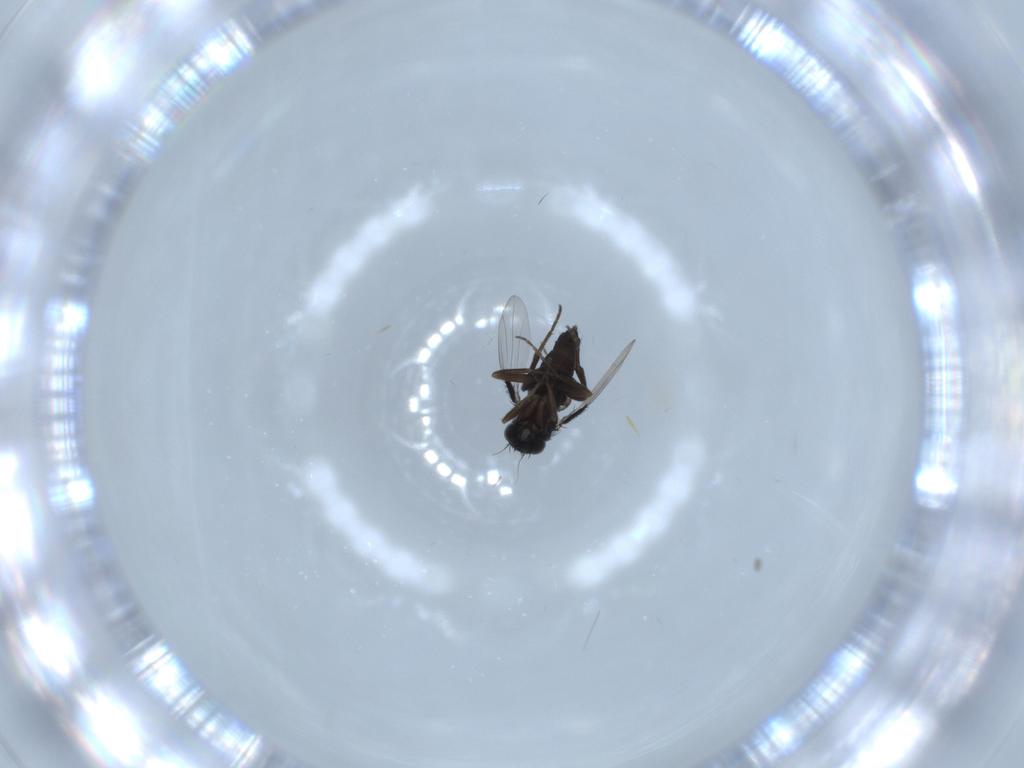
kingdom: Animalia
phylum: Arthropoda
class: Insecta
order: Diptera
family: Phoridae
